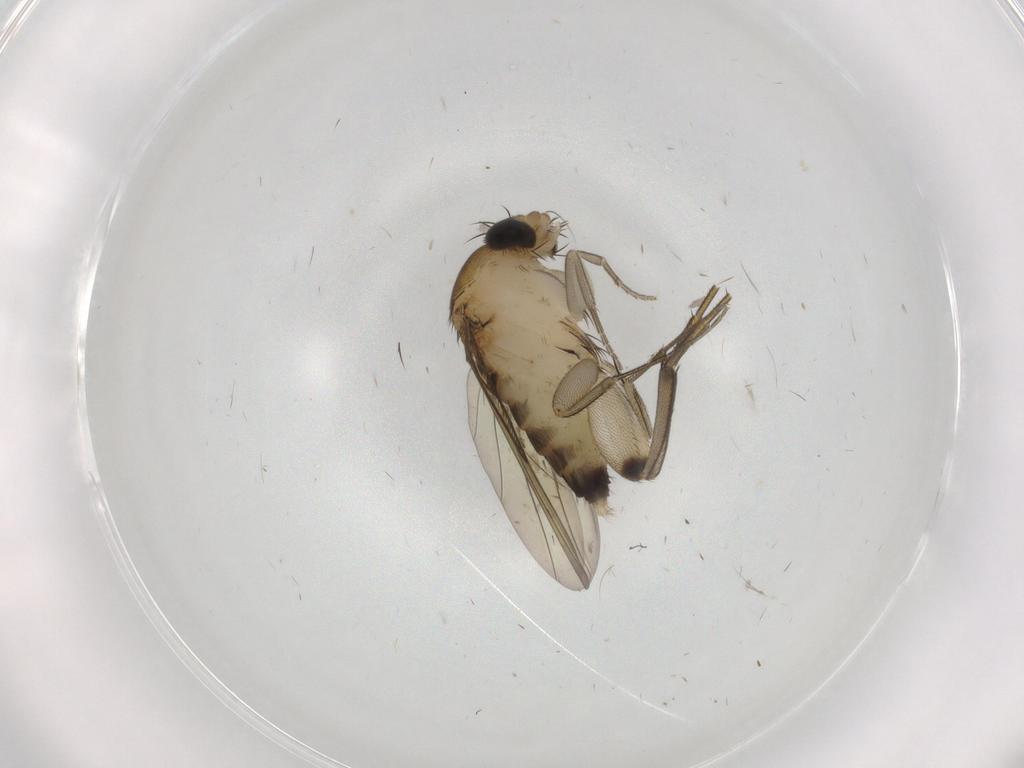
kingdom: Animalia
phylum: Arthropoda
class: Insecta
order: Diptera
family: Phoridae
